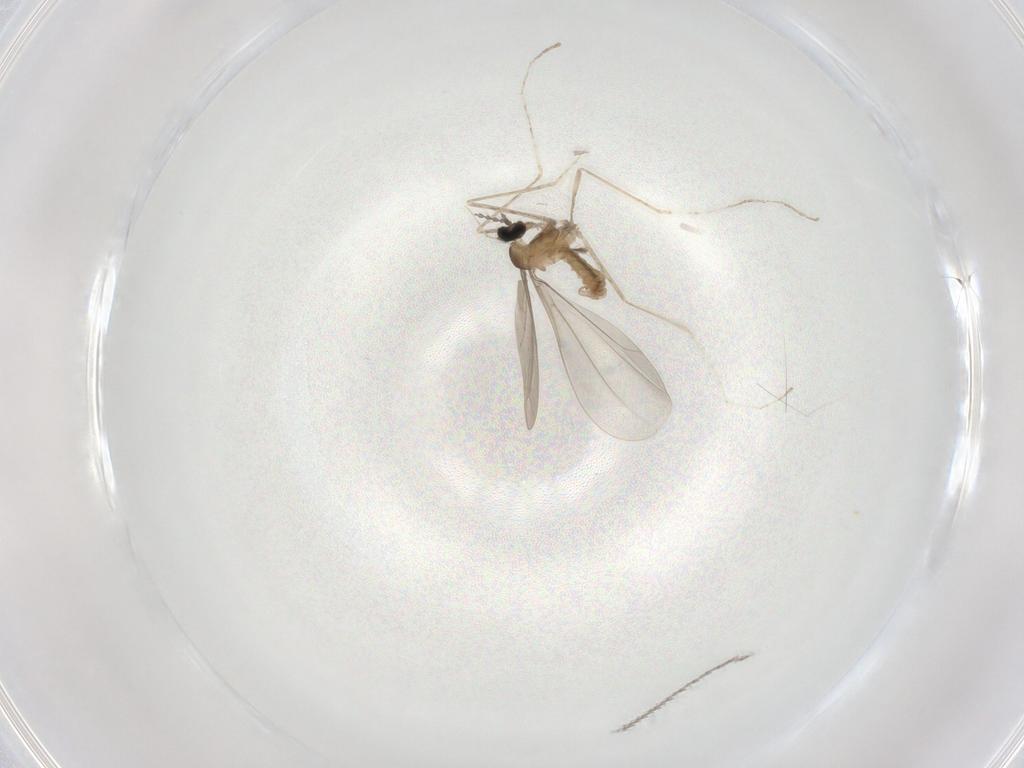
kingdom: Animalia
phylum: Arthropoda
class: Insecta
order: Diptera
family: Cecidomyiidae
